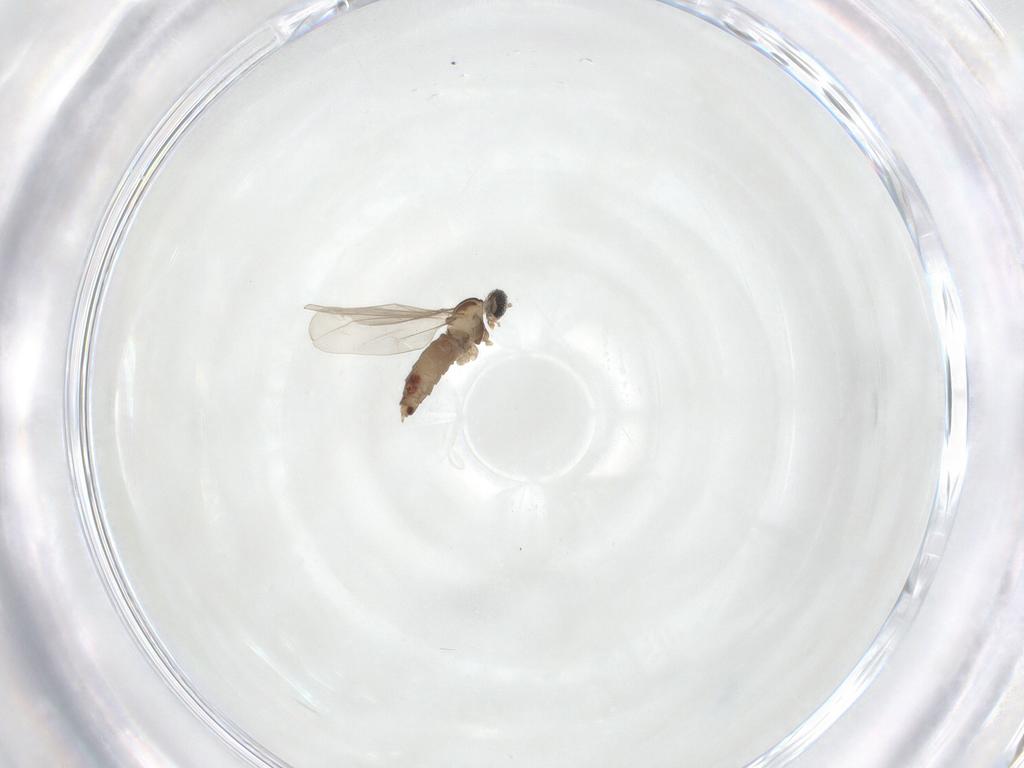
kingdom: Animalia
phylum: Arthropoda
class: Insecta
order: Diptera
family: Cecidomyiidae
